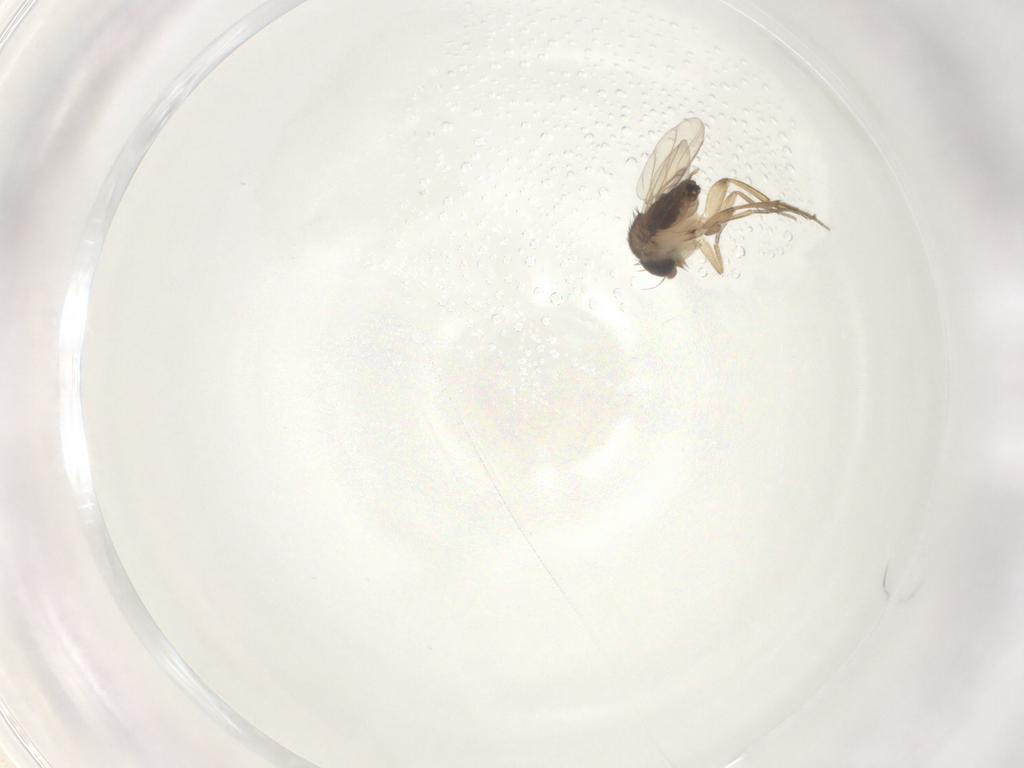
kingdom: Animalia
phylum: Arthropoda
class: Insecta
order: Diptera
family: Phoridae
